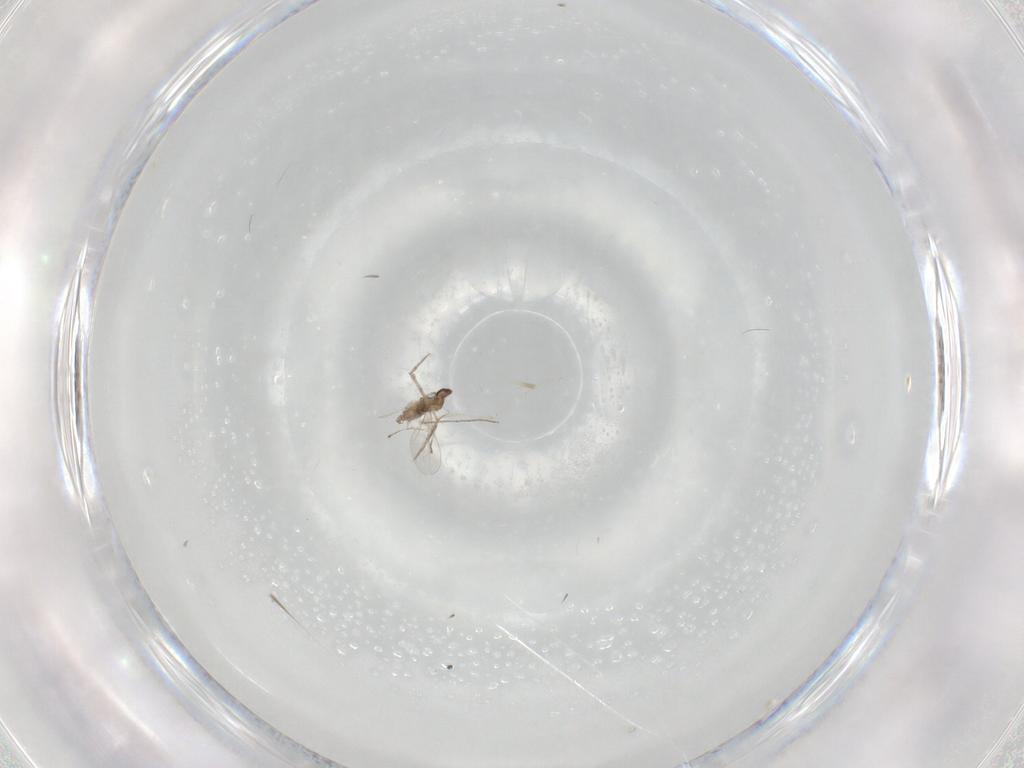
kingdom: Animalia
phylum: Arthropoda
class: Insecta
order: Diptera
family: Cecidomyiidae
